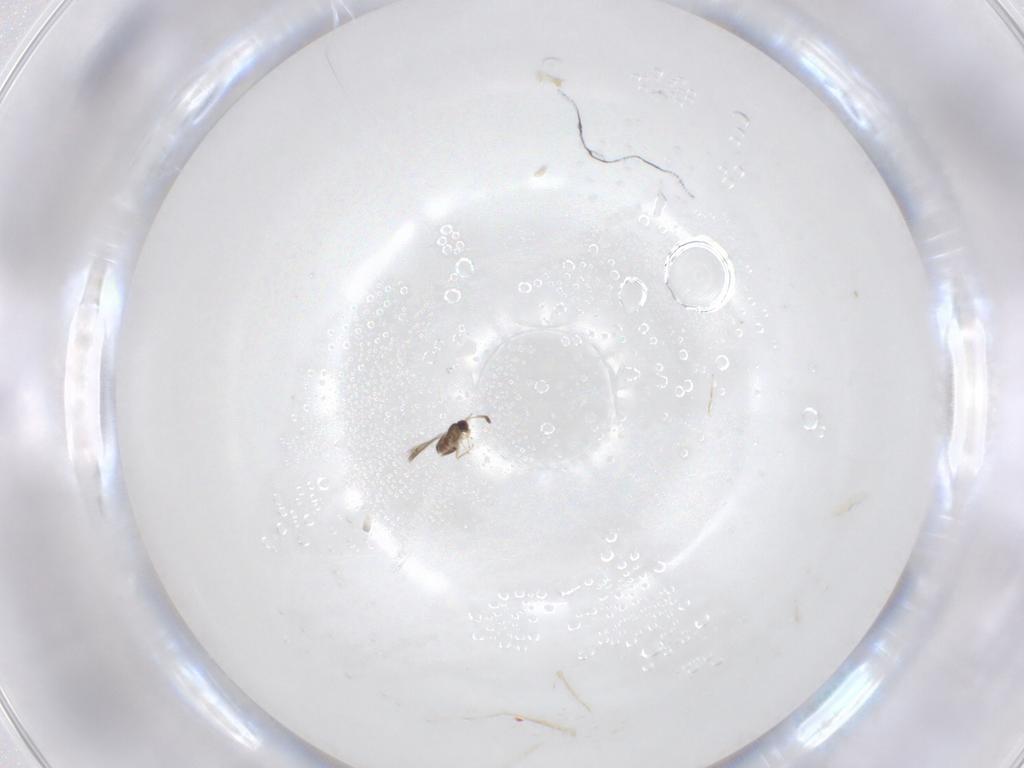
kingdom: Animalia
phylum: Arthropoda
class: Insecta
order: Hymenoptera
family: Mymaridae
